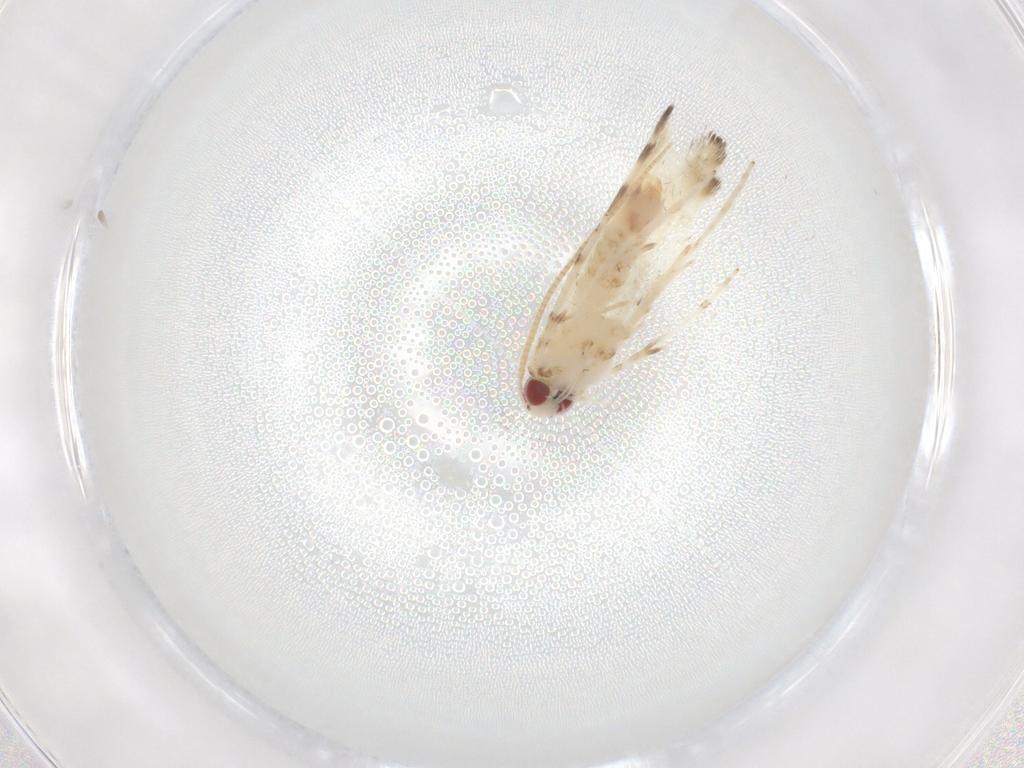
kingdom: Animalia
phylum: Arthropoda
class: Insecta
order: Lepidoptera
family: Gracillariidae
